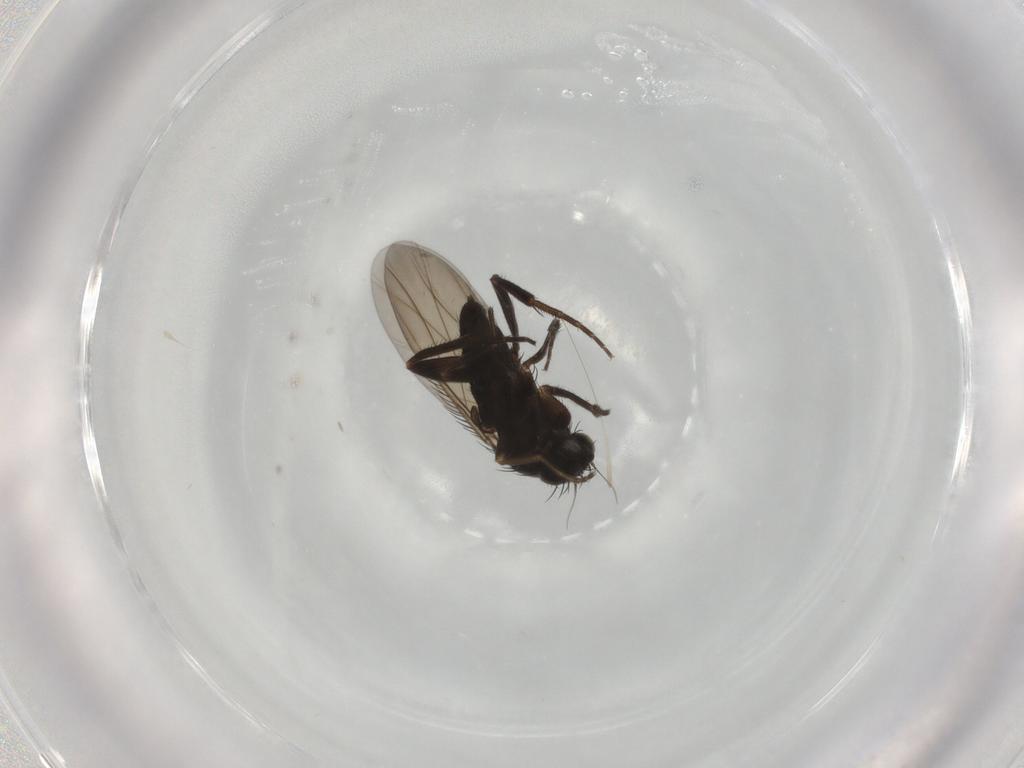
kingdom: Animalia
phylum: Arthropoda
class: Insecta
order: Diptera
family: Phoridae
